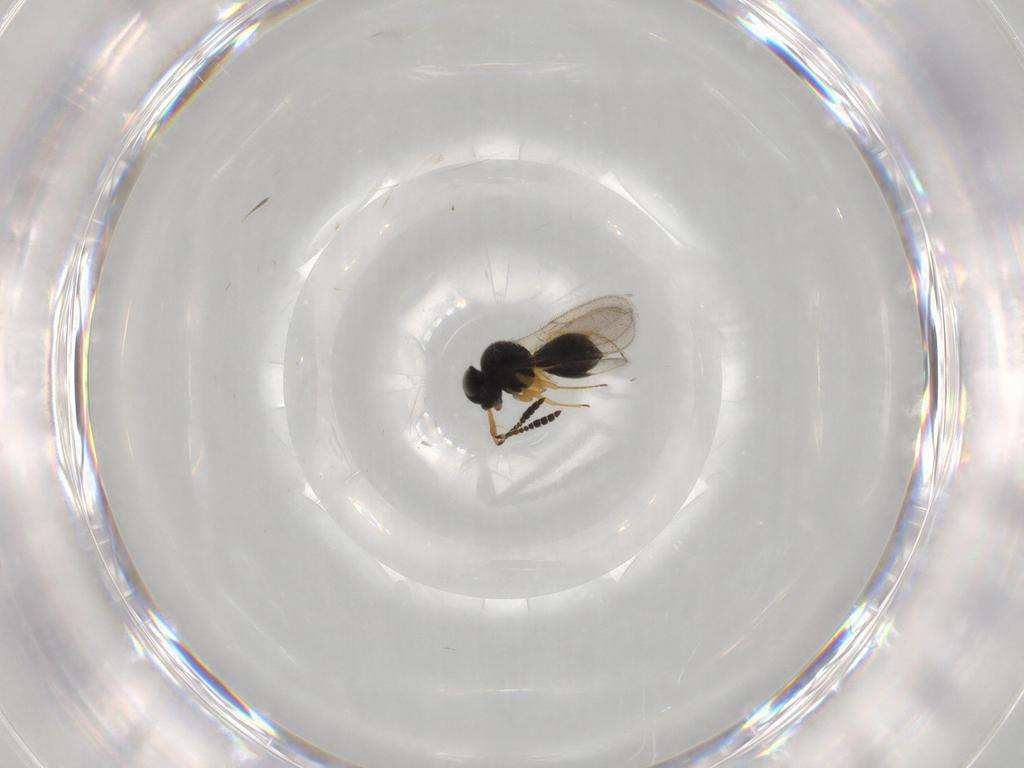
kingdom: Animalia
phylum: Arthropoda
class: Insecta
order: Hymenoptera
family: Scelionidae
